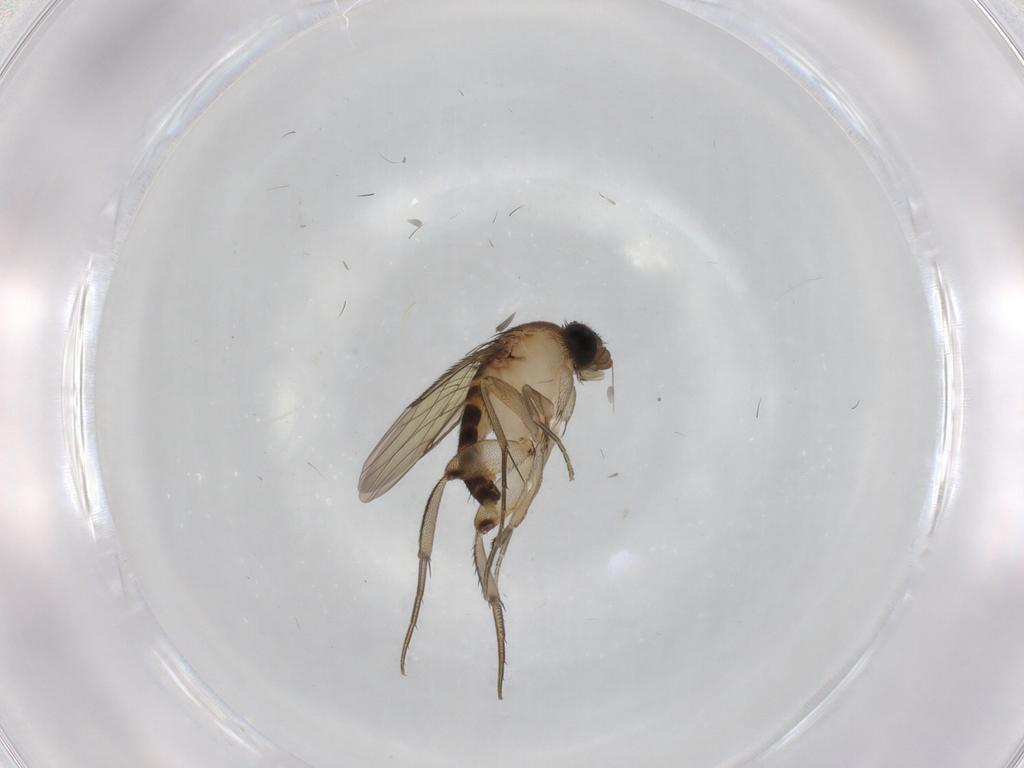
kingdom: Animalia
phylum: Arthropoda
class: Insecta
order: Diptera
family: Phoridae
